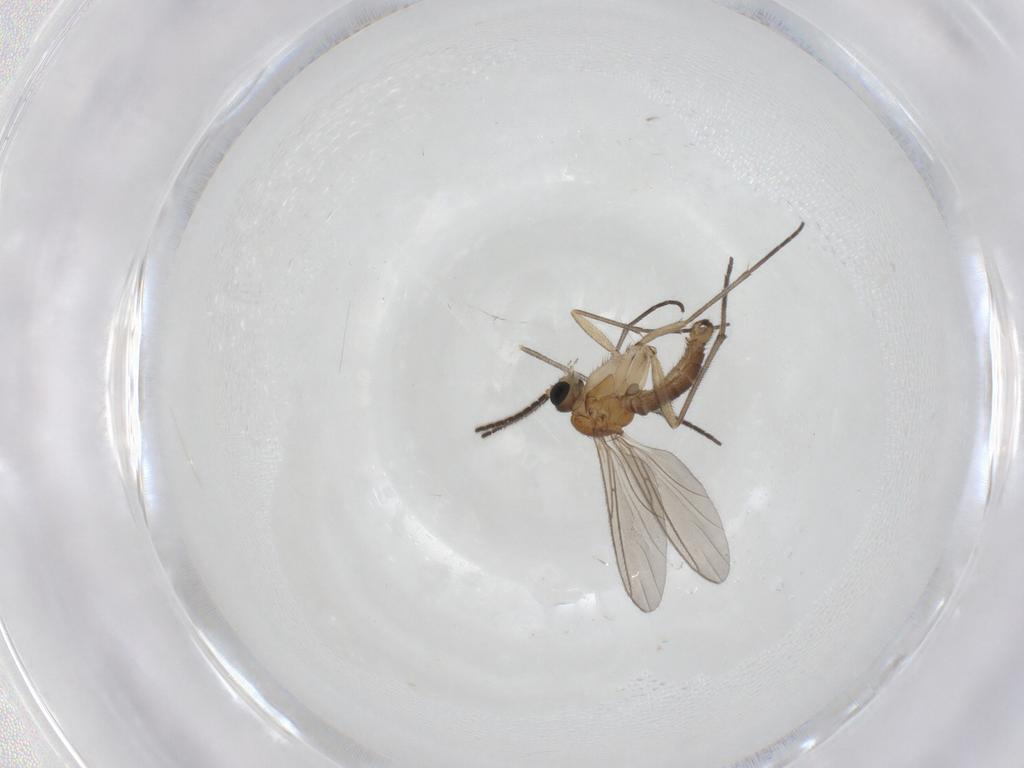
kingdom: Animalia
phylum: Arthropoda
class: Insecta
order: Diptera
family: Sciaridae
